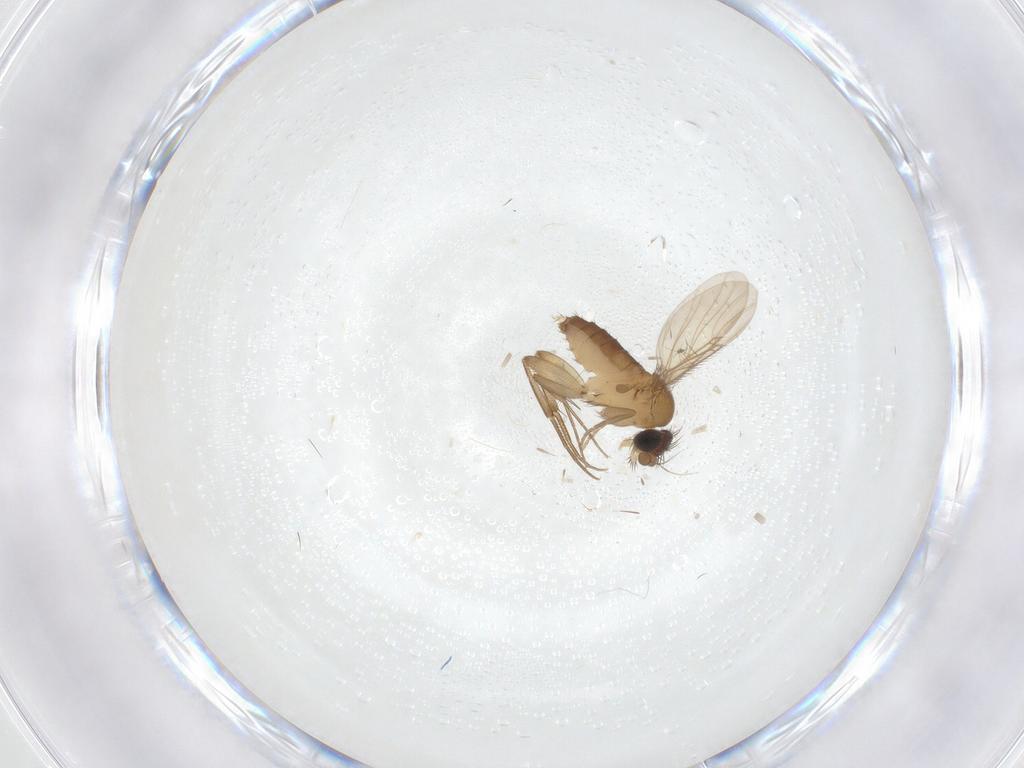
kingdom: Animalia
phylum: Arthropoda
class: Insecta
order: Diptera
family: Phoridae
